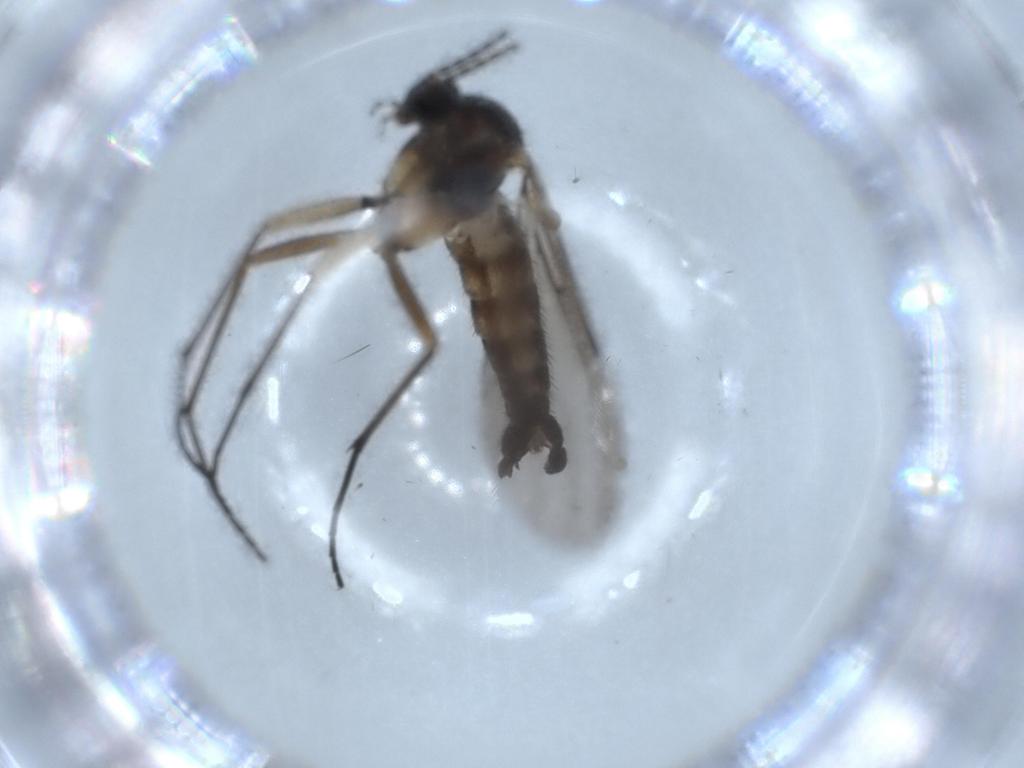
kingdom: Animalia
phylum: Arthropoda
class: Insecta
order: Diptera
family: Sciaridae
